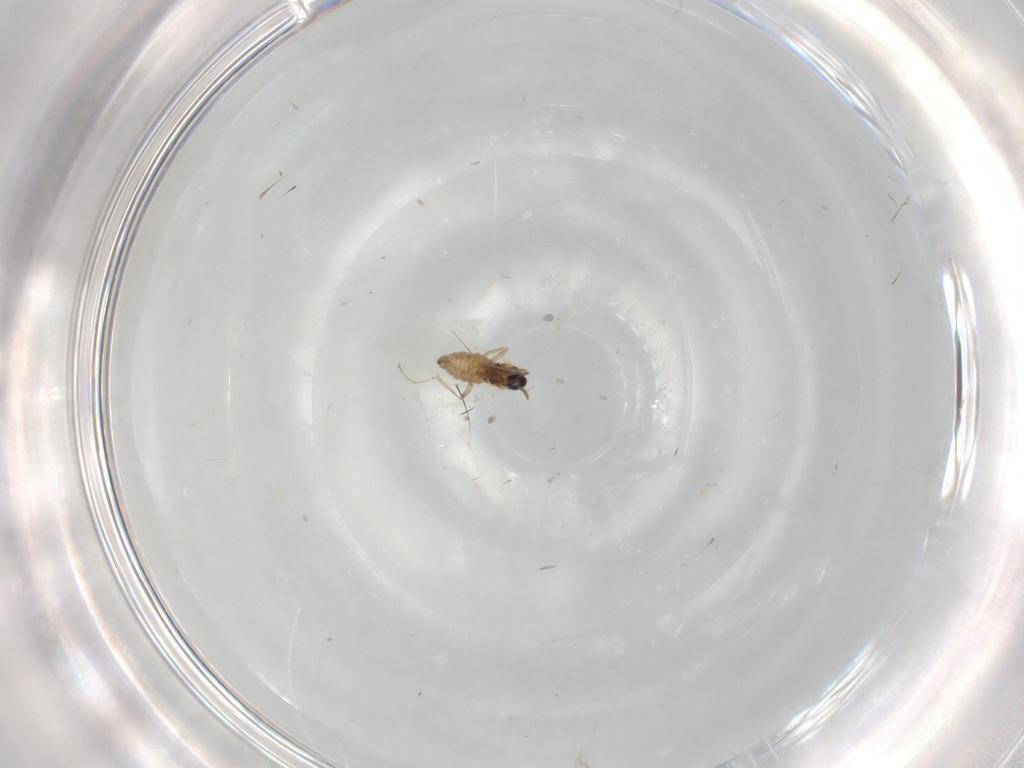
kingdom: Animalia
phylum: Arthropoda
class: Insecta
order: Diptera
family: Cecidomyiidae
